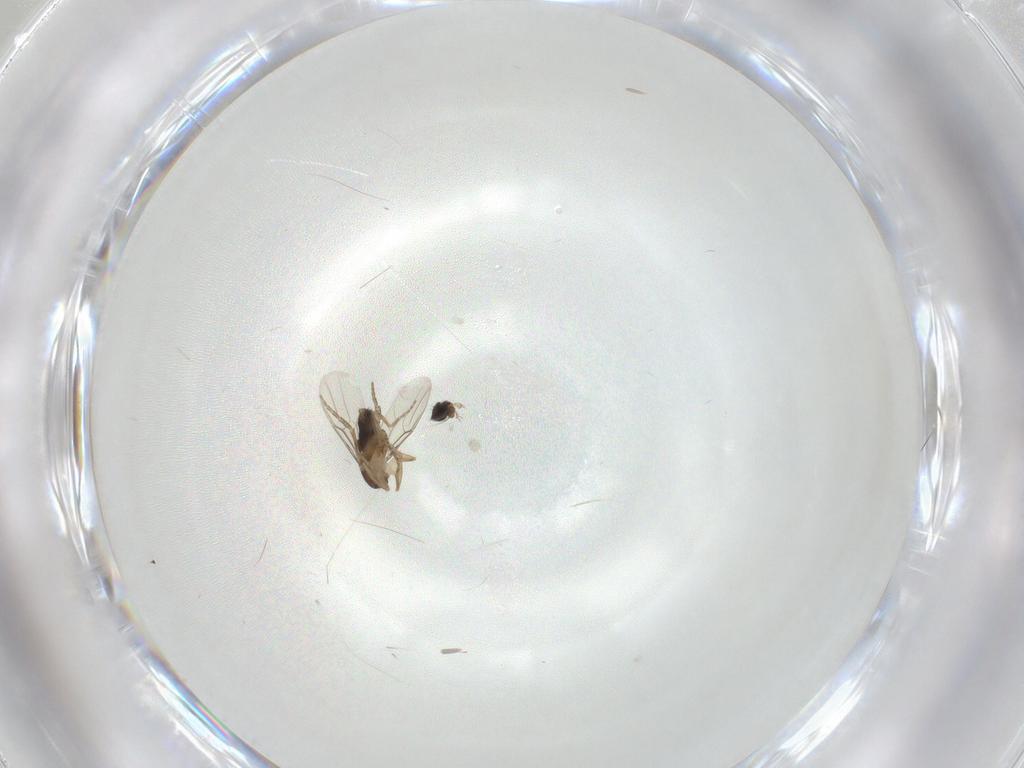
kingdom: Animalia
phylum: Arthropoda
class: Insecta
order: Diptera
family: Phoridae
